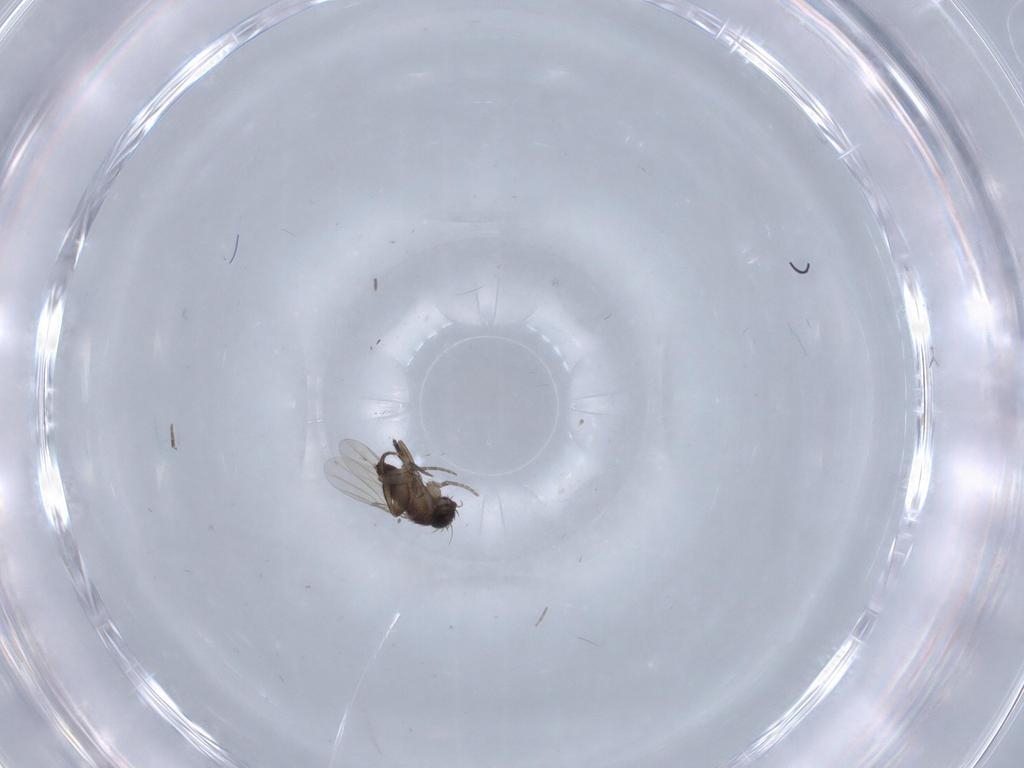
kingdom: Animalia
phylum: Arthropoda
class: Insecta
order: Diptera
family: Phoridae
